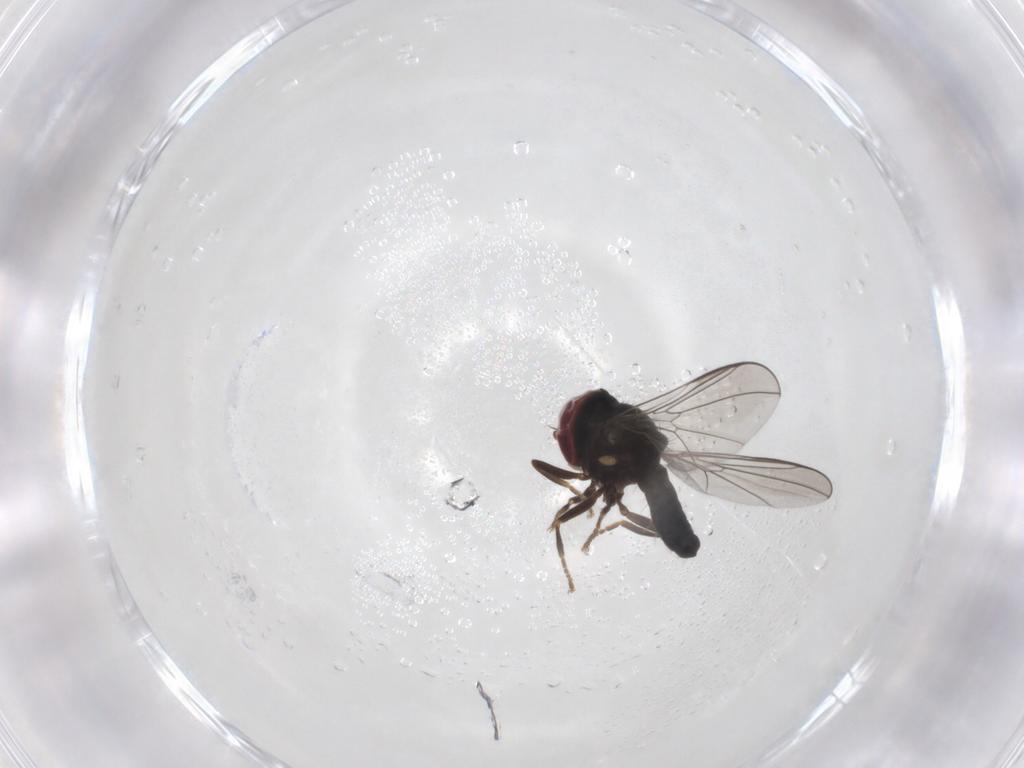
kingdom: Animalia
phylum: Arthropoda
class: Insecta
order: Diptera
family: Pipunculidae
